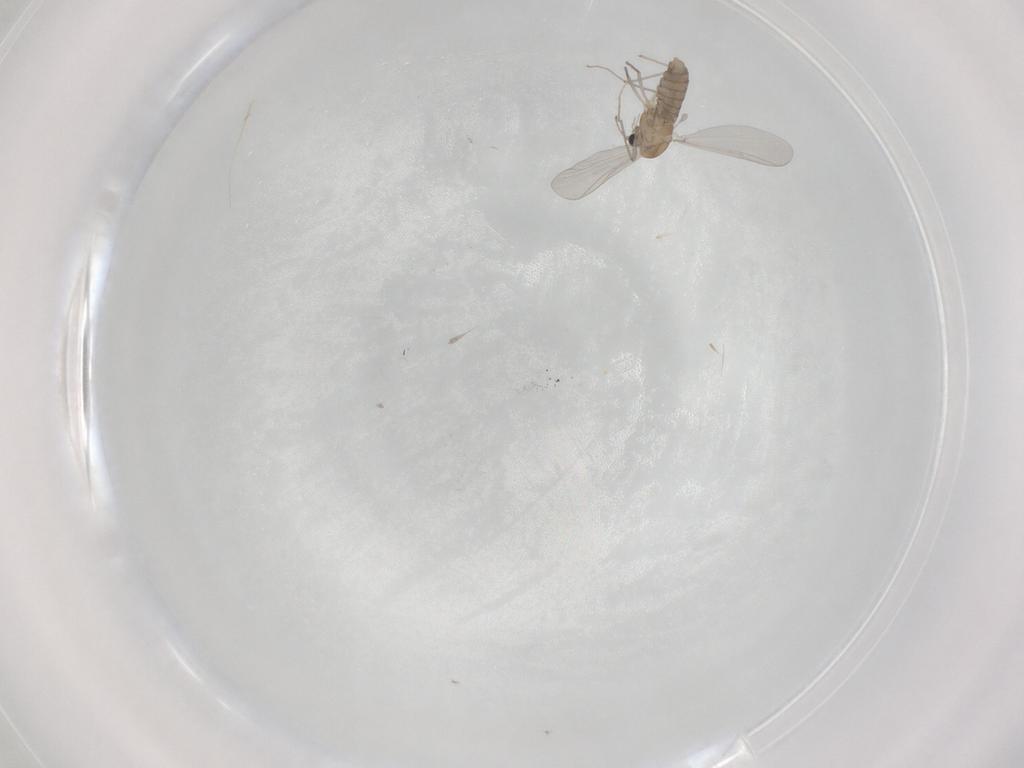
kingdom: Animalia
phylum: Arthropoda
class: Insecta
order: Diptera
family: Chironomidae
